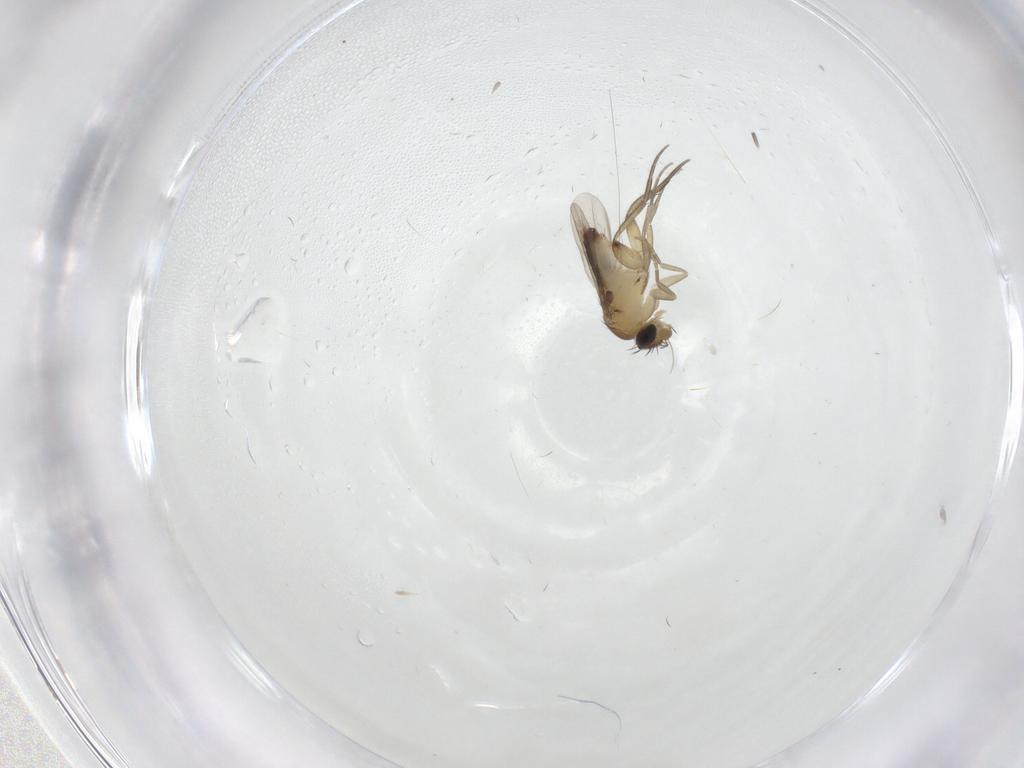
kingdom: Animalia
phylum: Arthropoda
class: Insecta
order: Diptera
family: Phoridae
